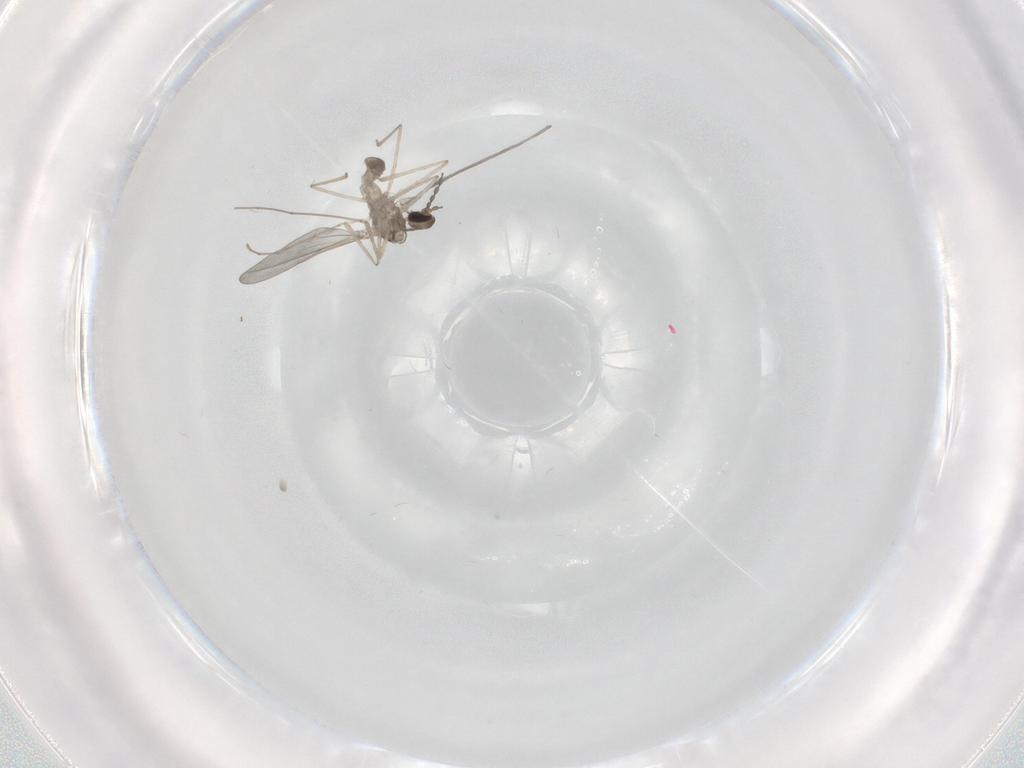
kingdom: Animalia
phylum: Arthropoda
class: Insecta
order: Diptera
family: Cecidomyiidae
